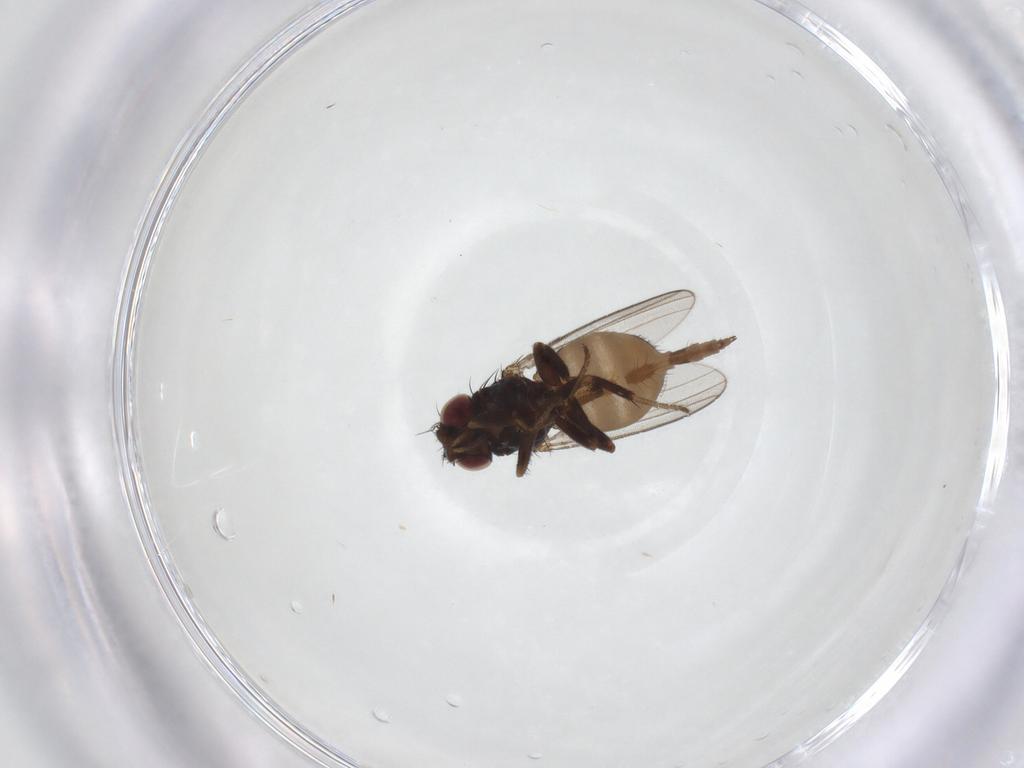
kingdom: Animalia
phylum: Arthropoda
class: Insecta
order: Diptera
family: Milichiidae
